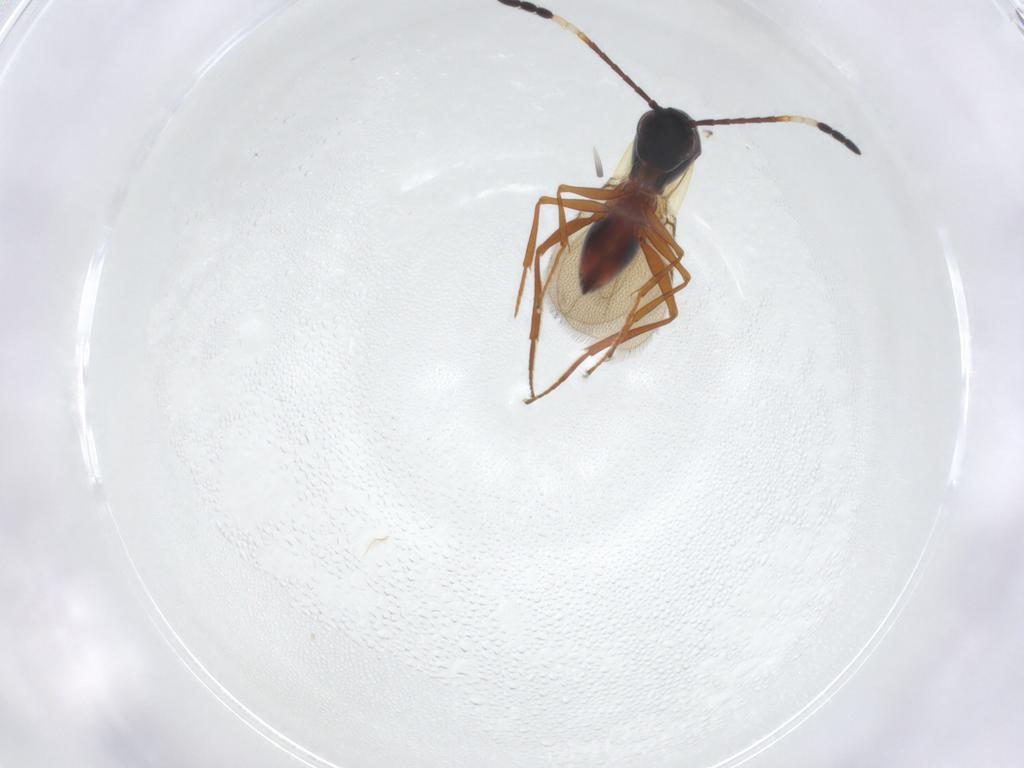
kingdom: Animalia
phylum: Arthropoda
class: Insecta
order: Hymenoptera
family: Figitidae
